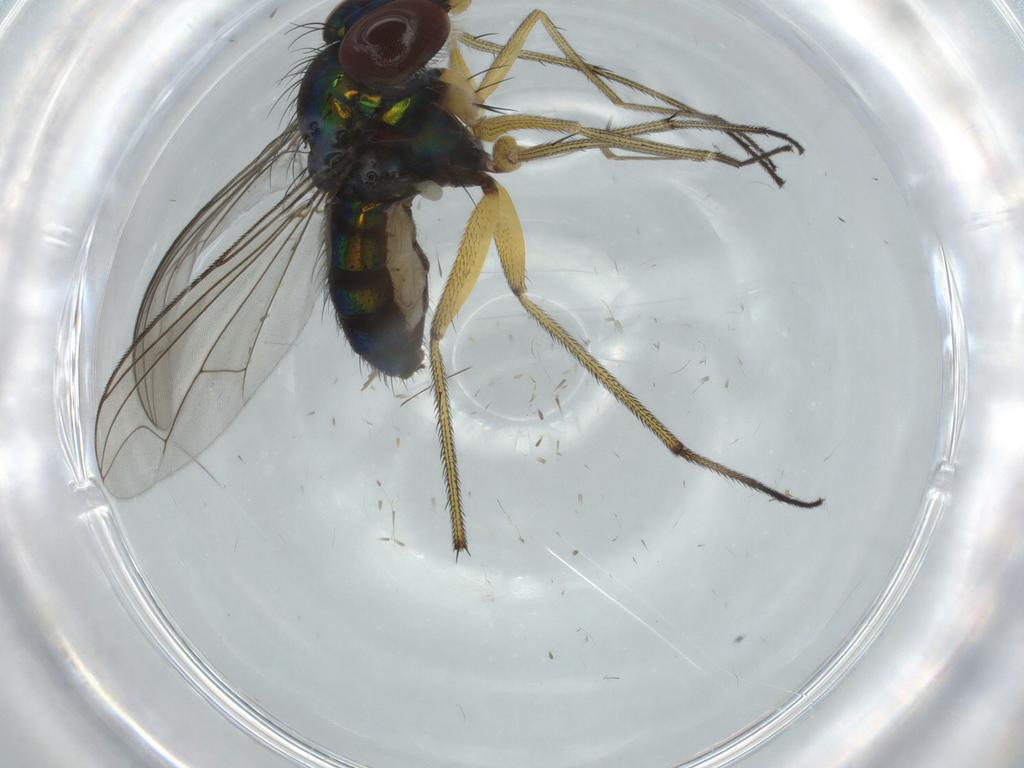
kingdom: Animalia
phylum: Arthropoda
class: Insecta
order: Diptera
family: Dolichopodidae
